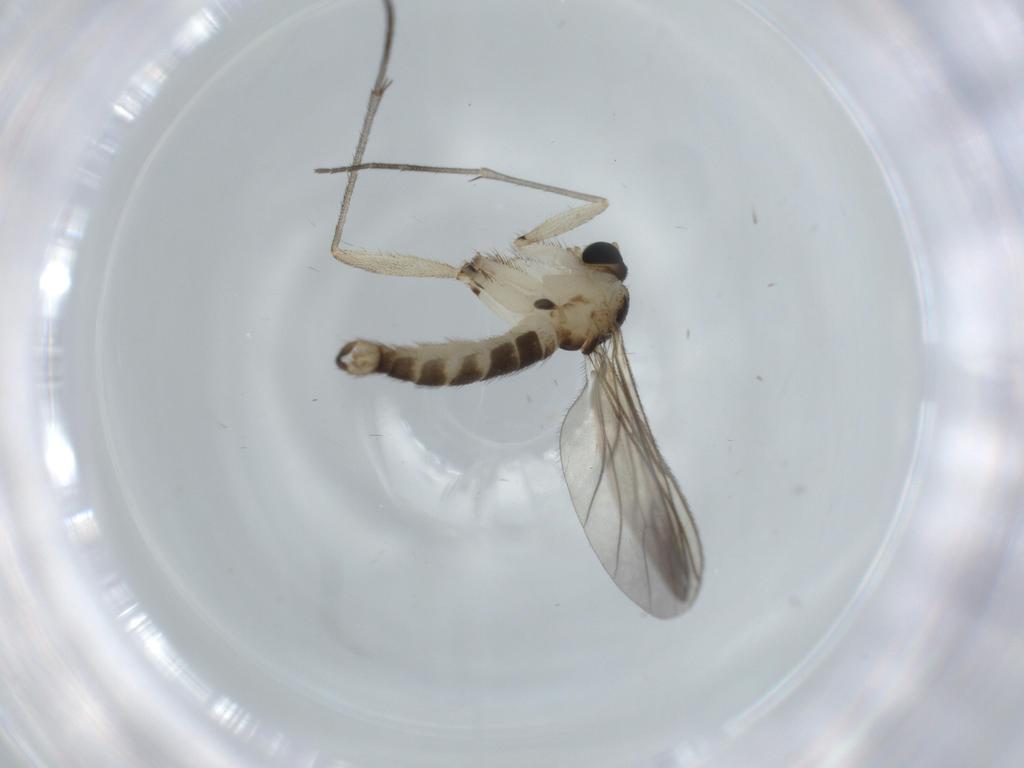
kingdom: Animalia
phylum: Arthropoda
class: Insecta
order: Diptera
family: Sciaridae
